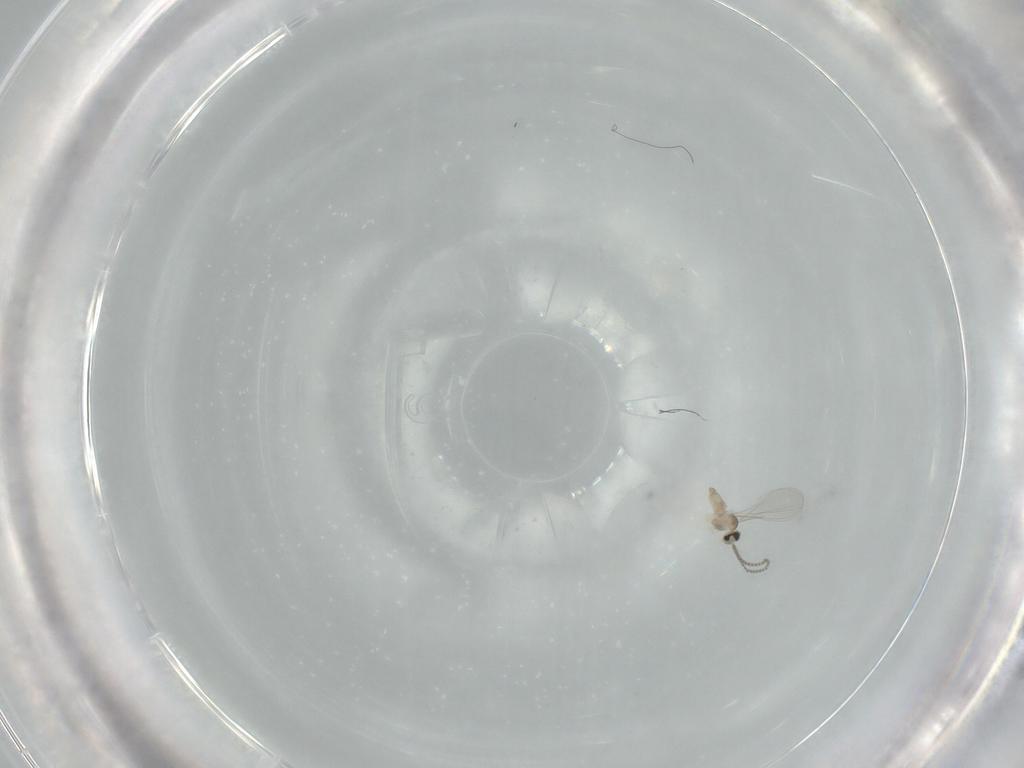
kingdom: Animalia
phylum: Arthropoda
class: Insecta
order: Diptera
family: Cecidomyiidae
